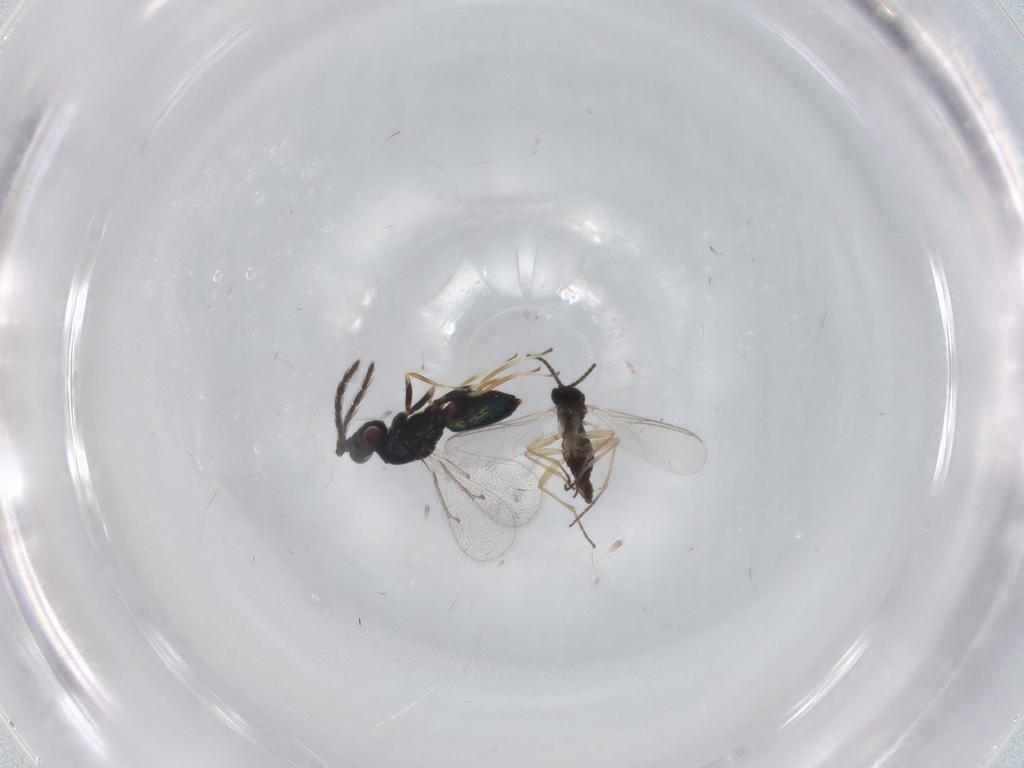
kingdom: Animalia
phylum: Arthropoda
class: Insecta
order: Hymenoptera
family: Eulophidae
